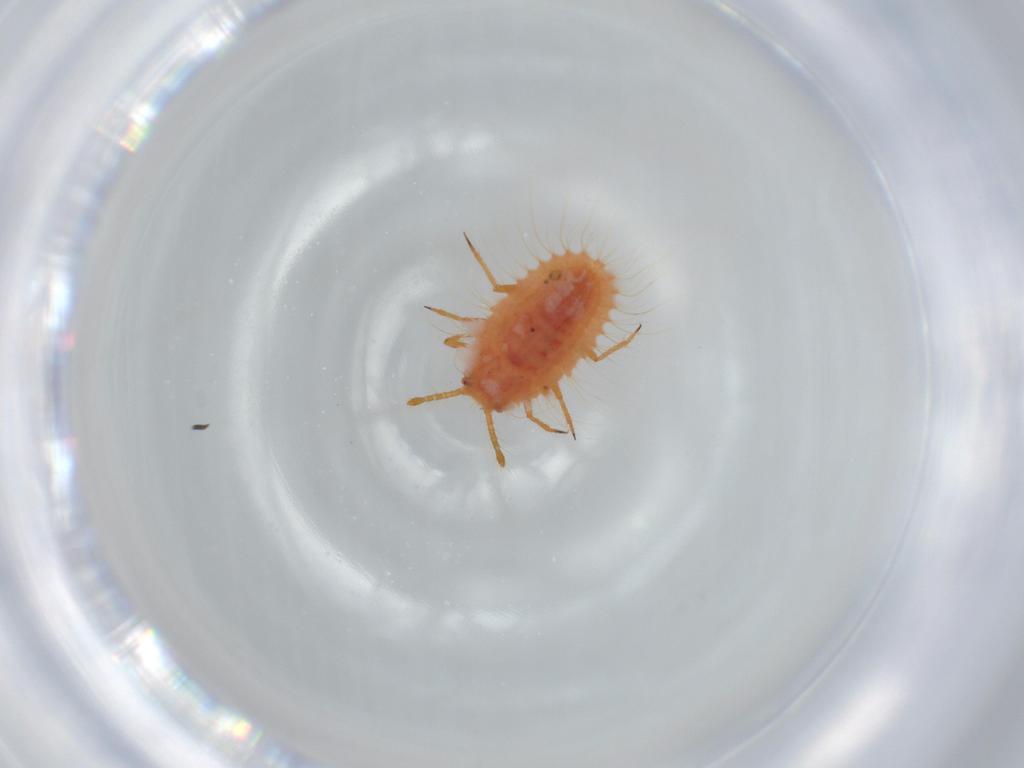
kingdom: Animalia
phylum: Arthropoda
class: Insecta
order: Hemiptera
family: Coccoidea_incertae_sedis
